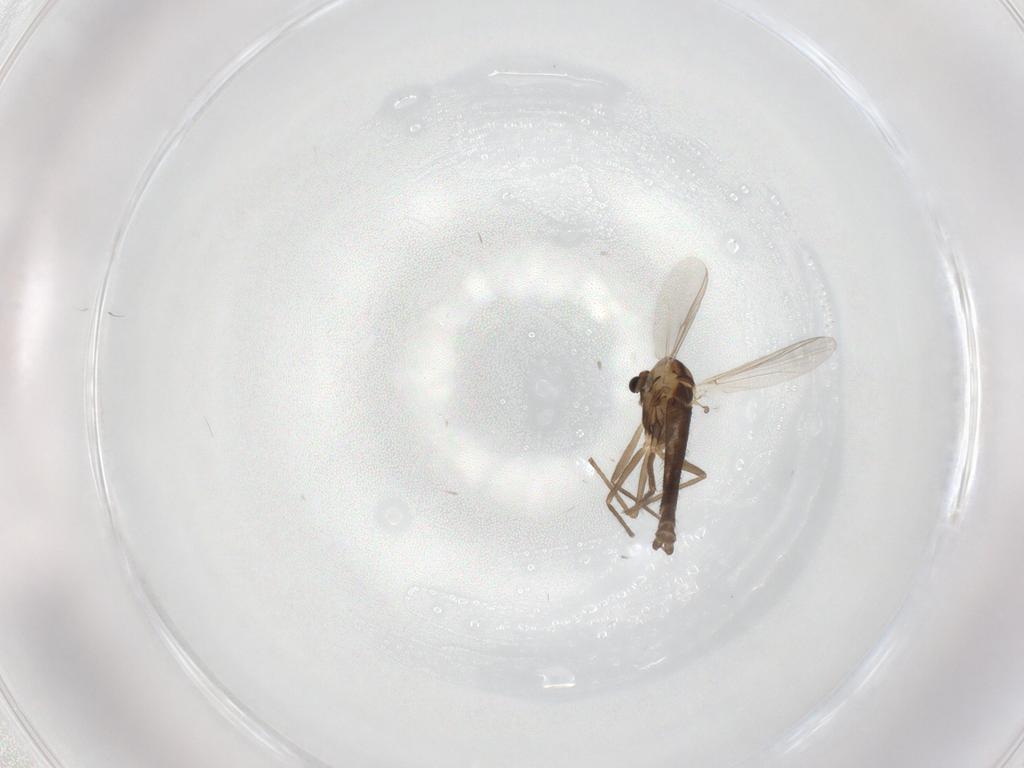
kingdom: Animalia
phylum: Arthropoda
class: Insecta
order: Diptera
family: Chironomidae
